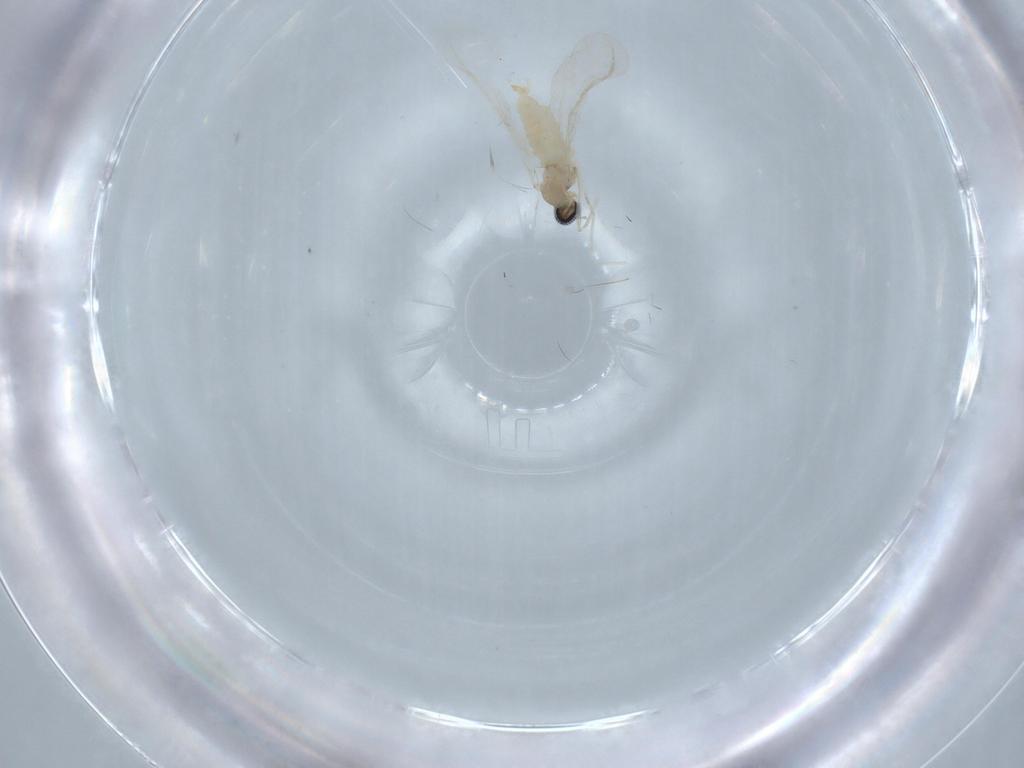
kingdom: Animalia
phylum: Arthropoda
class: Insecta
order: Diptera
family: Cecidomyiidae
